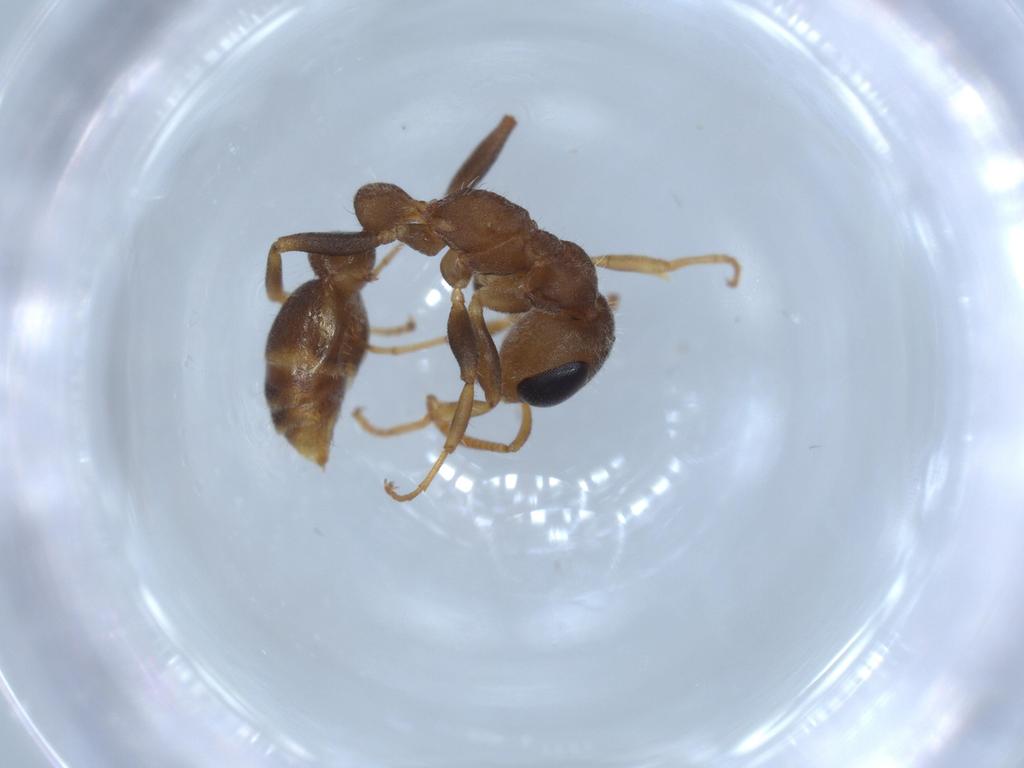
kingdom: Animalia
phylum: Arthropoda
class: Insecta
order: Hymenoptera
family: Formicidae
